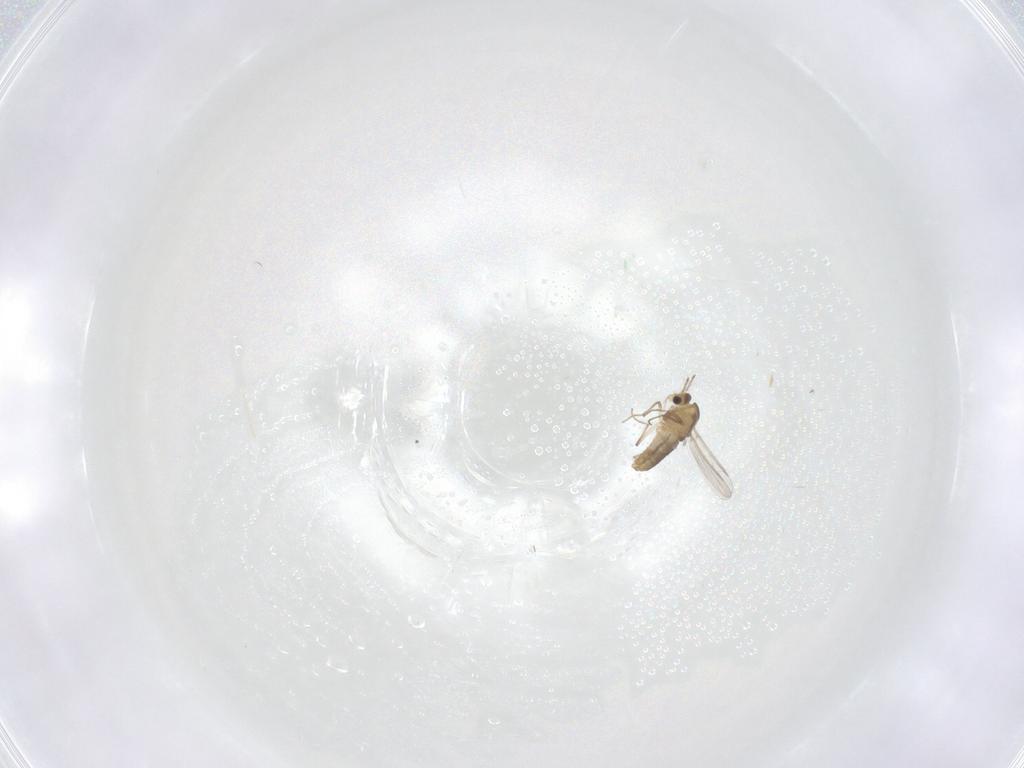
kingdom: Animalia
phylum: Arthropoda
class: Insecta
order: Diptera
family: Chironomidae
